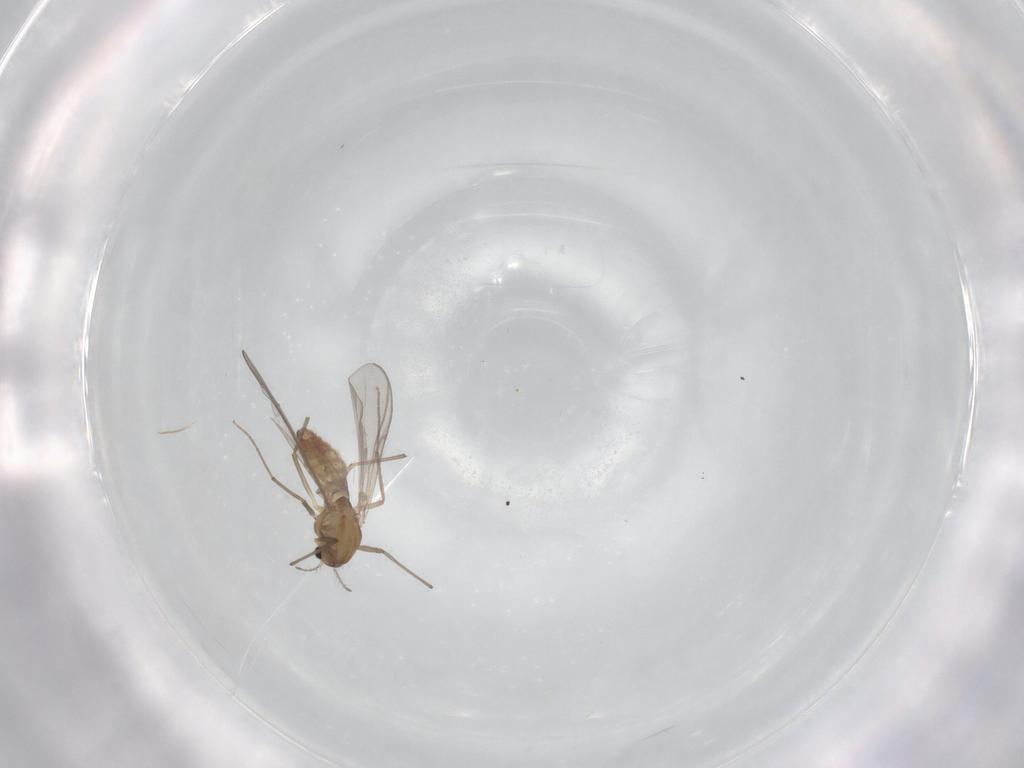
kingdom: Animalia
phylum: Arthropoda
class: Insecta
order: Diptera
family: Chironomidae
